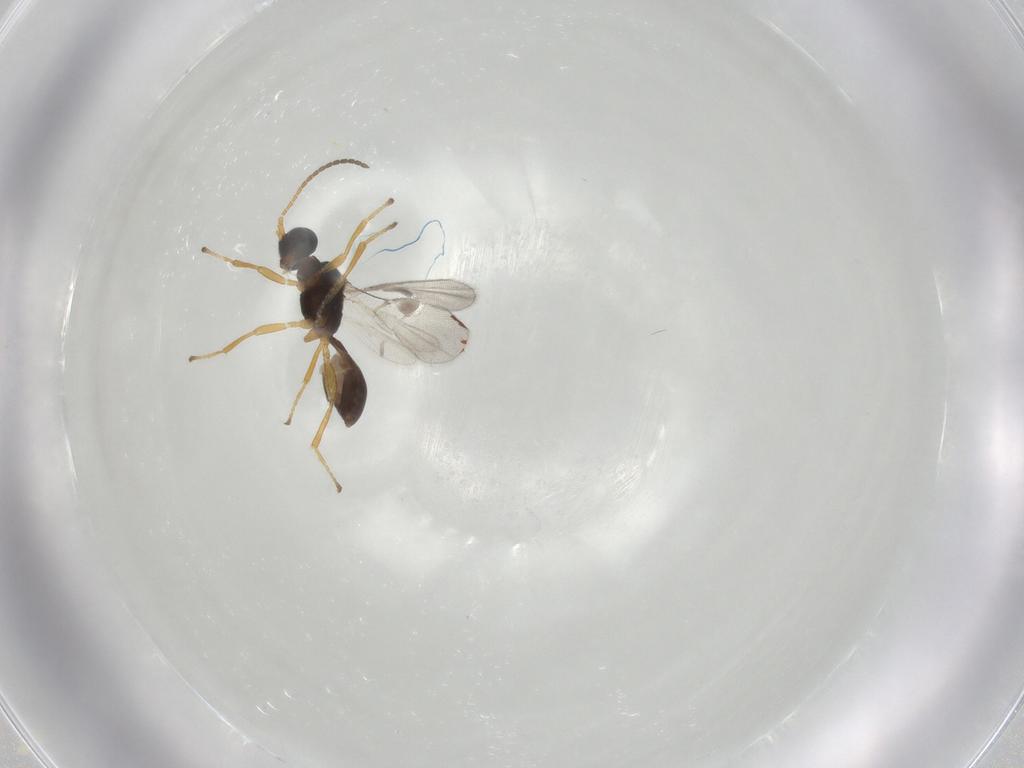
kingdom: Animalia
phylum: Arthropoda
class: Insecta
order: Hymenoptera
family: Braconidae
